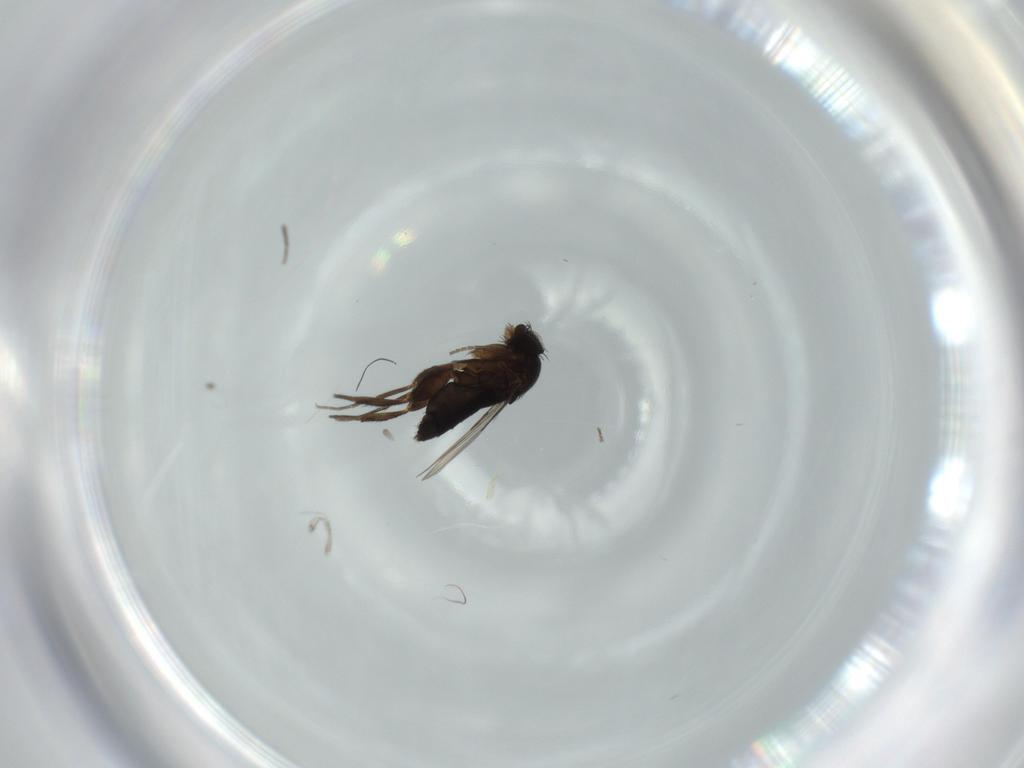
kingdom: Animalia
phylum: Arthropoda
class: Insecta
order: Diptera
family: Phoridae
